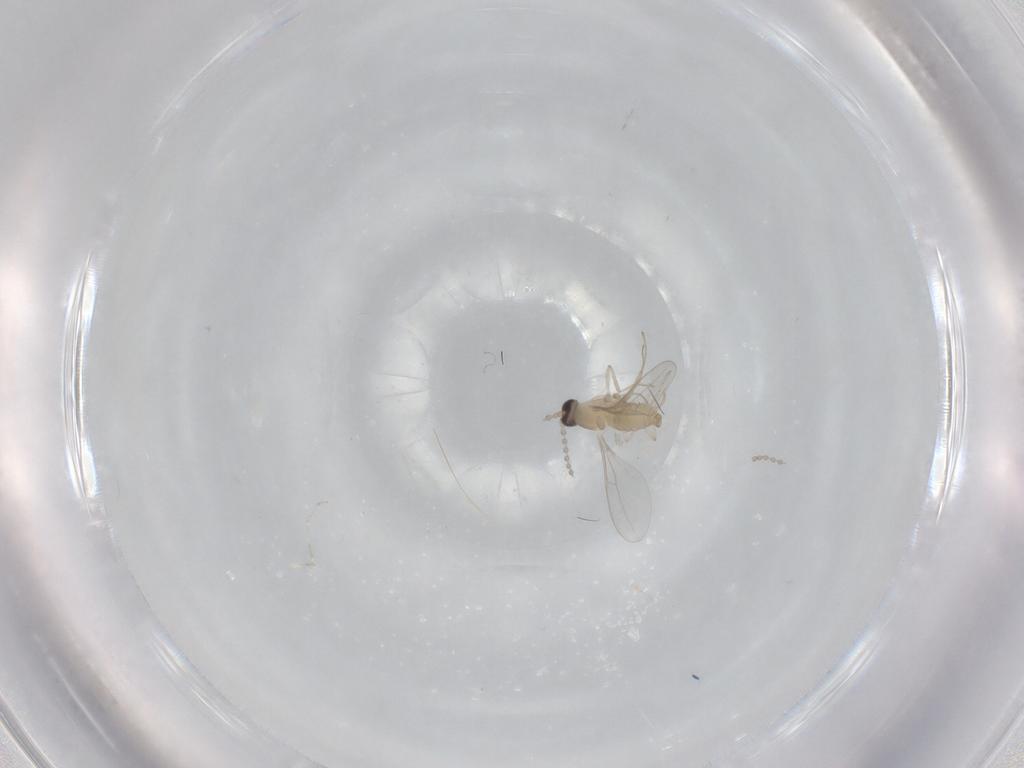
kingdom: Animalia
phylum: Arthropoda
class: Insecta
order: Diptera
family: Cecidomyiidae
